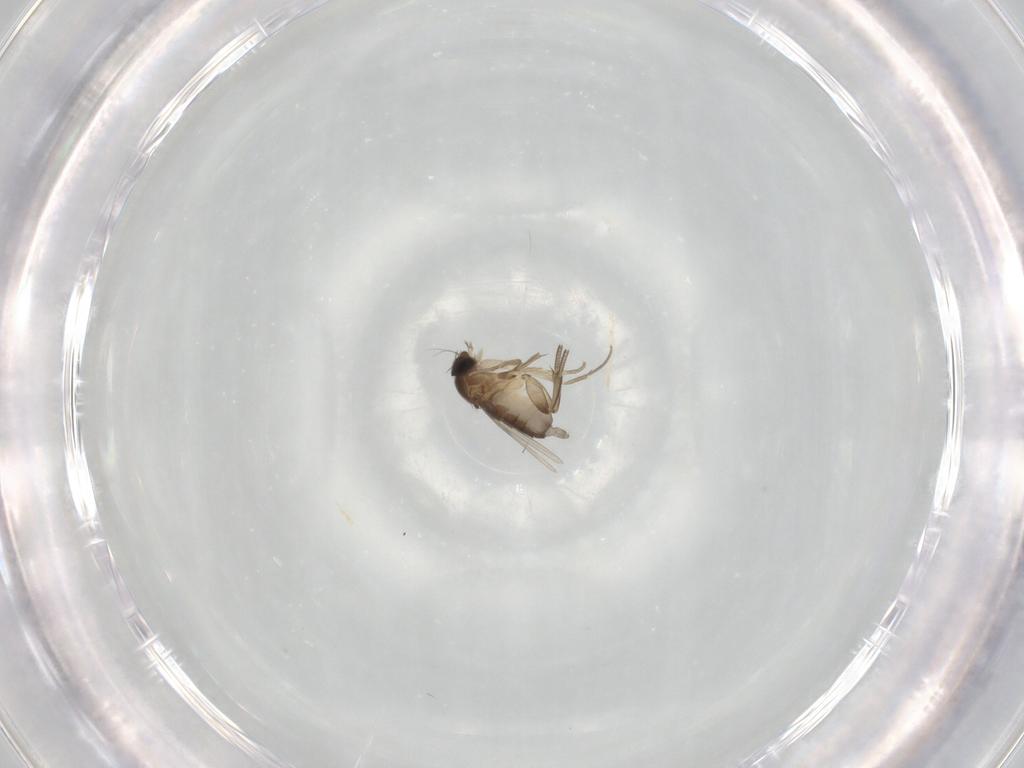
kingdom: Animalia
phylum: Arthropoda
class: Insecta
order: Diptera
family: Phoridae
